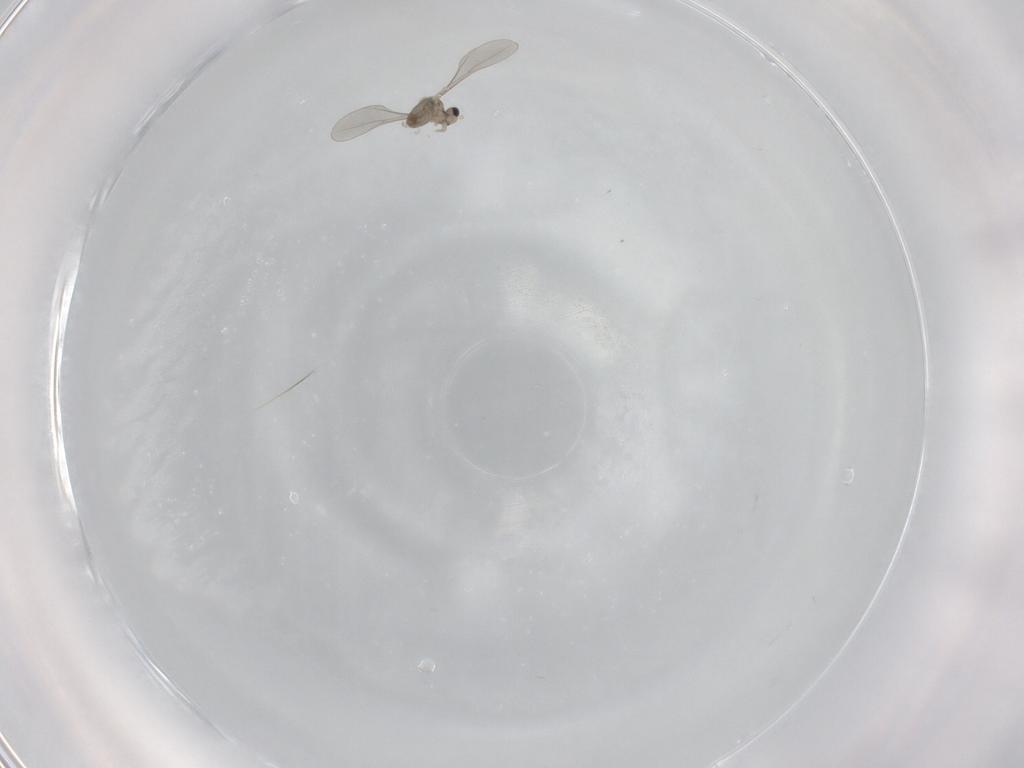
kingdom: Animalia
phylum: Arthropoda
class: Insecta
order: Diptera
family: Cecidomyiidae
